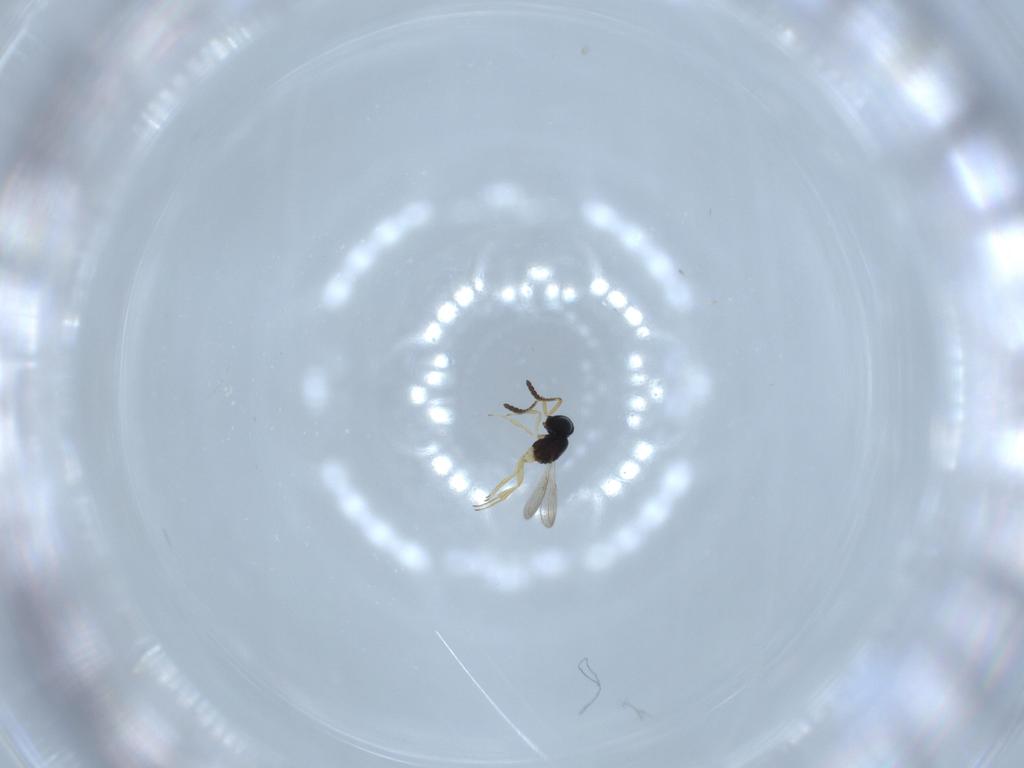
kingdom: Animalia
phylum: Arthropoda
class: Insecta
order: Hymenoptera
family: Scelionidae
